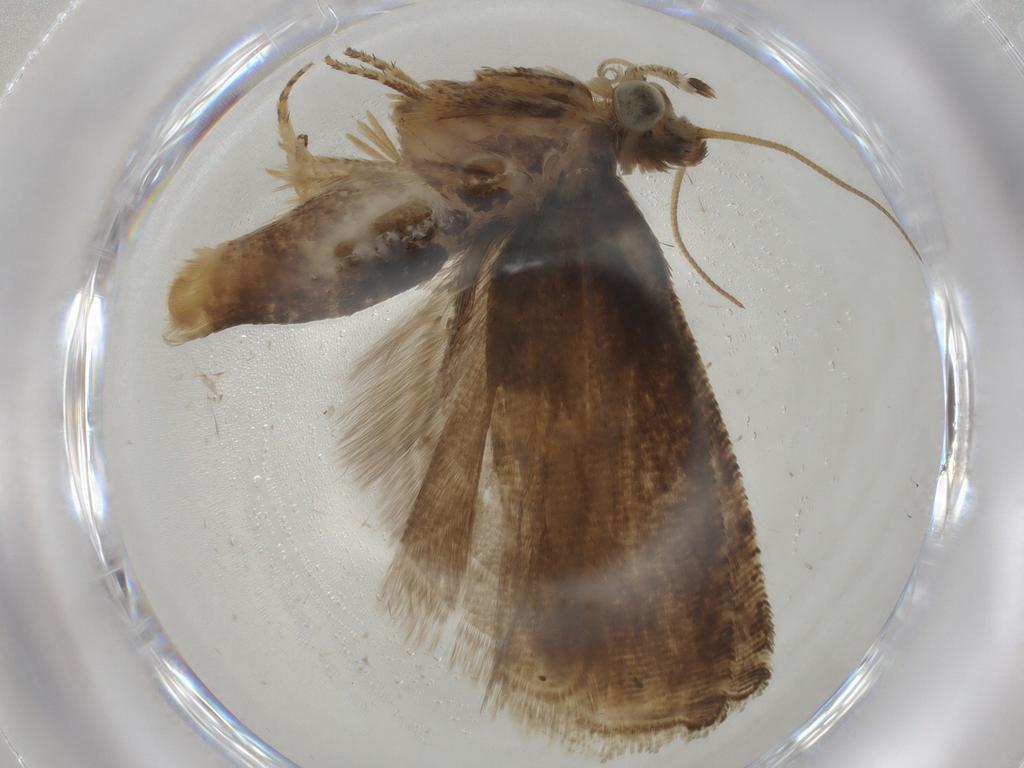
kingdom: Animalia
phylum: Arthropoda
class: Insecta
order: Lepidoptera
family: Tortricidae
